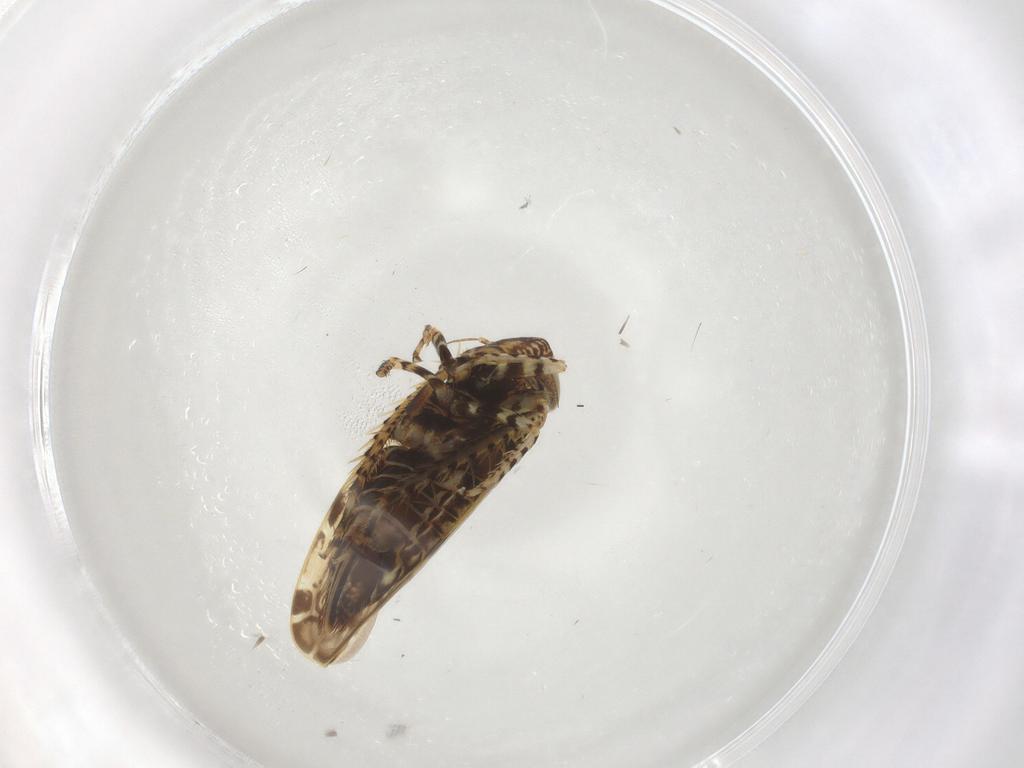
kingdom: Animalia
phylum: Arthropoda
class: Insecta
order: Hemiptera
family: Cicadellidae
